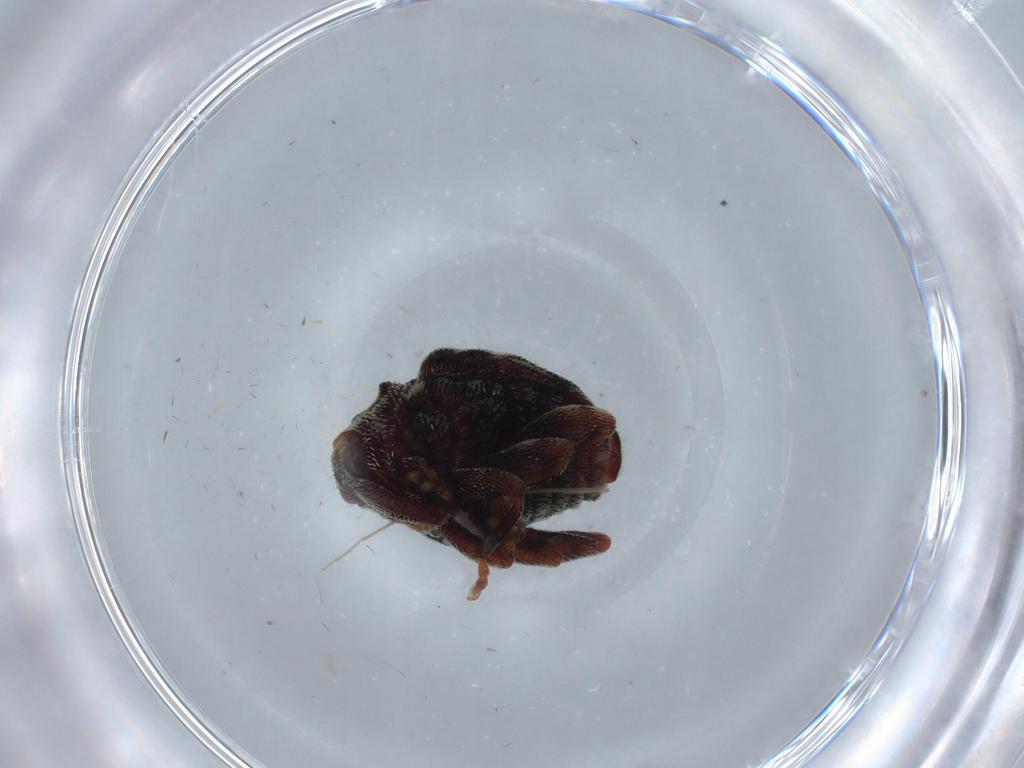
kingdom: Animalia
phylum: Arthropoda
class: Insecta
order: Coleoptera
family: Curculionidae
